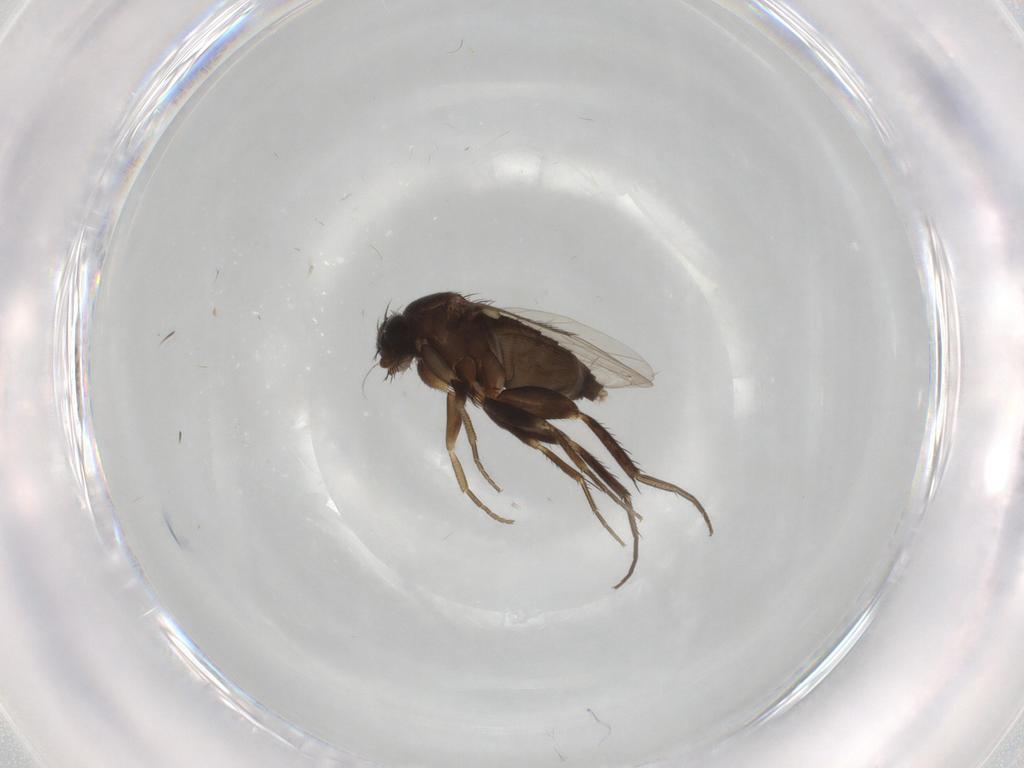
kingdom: Animalia
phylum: Arthropoda
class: Insecta
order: Diptera
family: Phoridae
